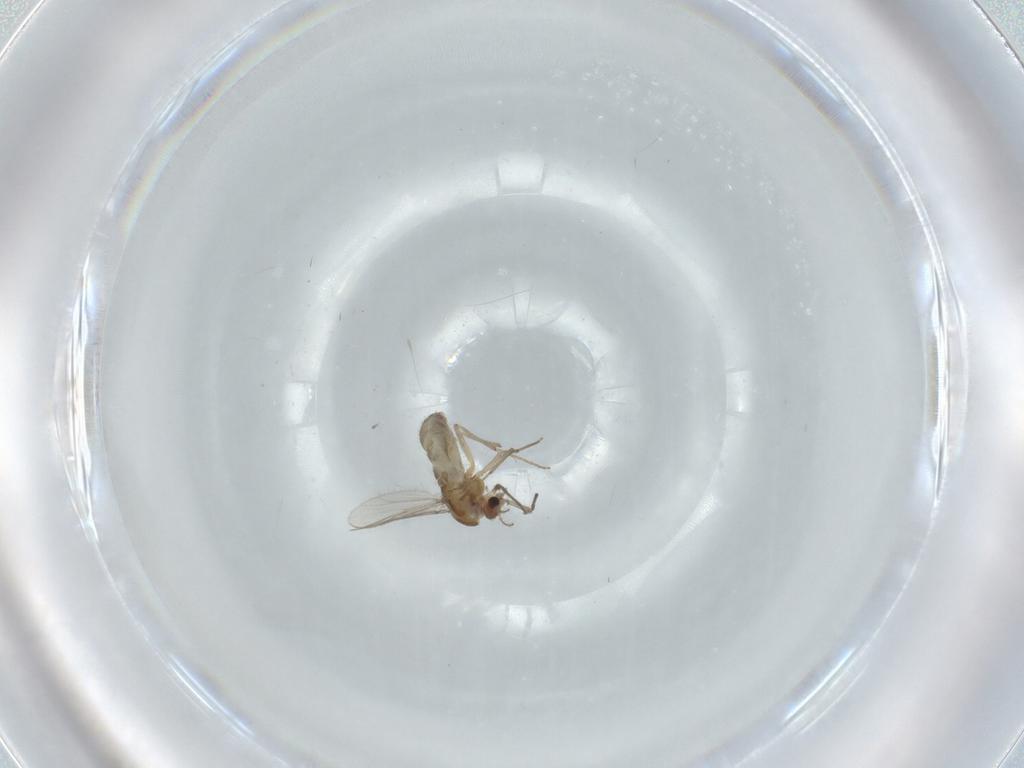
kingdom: Animalia
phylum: Arthropoda
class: Insecta
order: Diptera
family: Chironomidae
